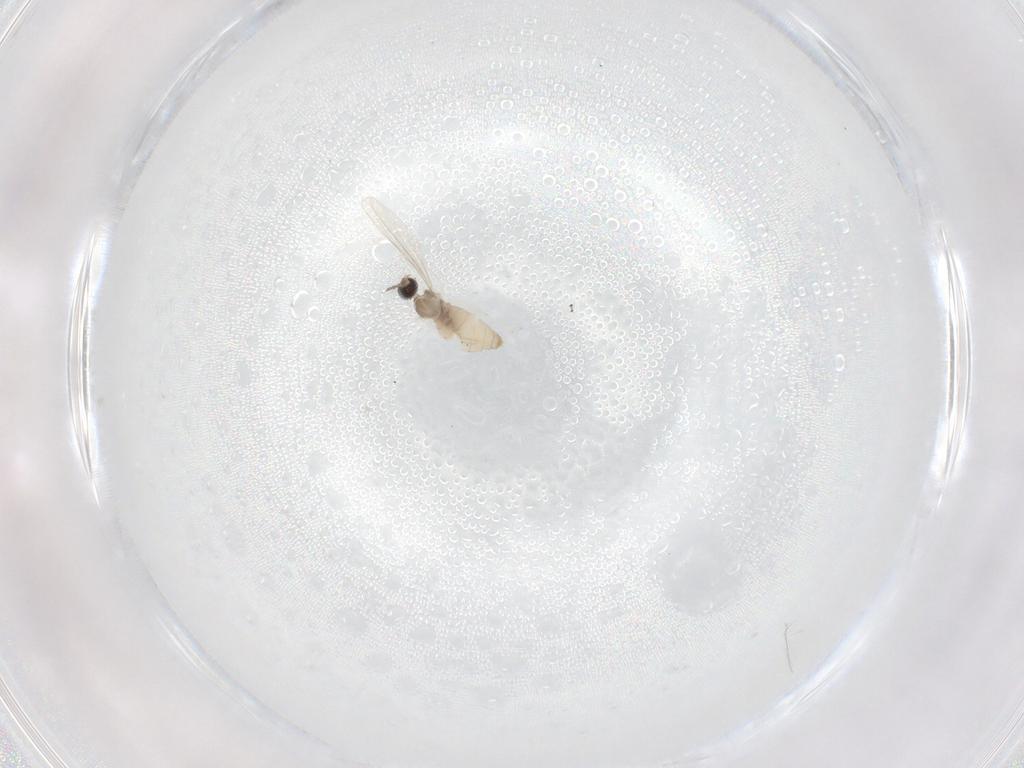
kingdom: Animalia
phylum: Arthropoda
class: Insecta
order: Diptera
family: Cecidomyiidae
